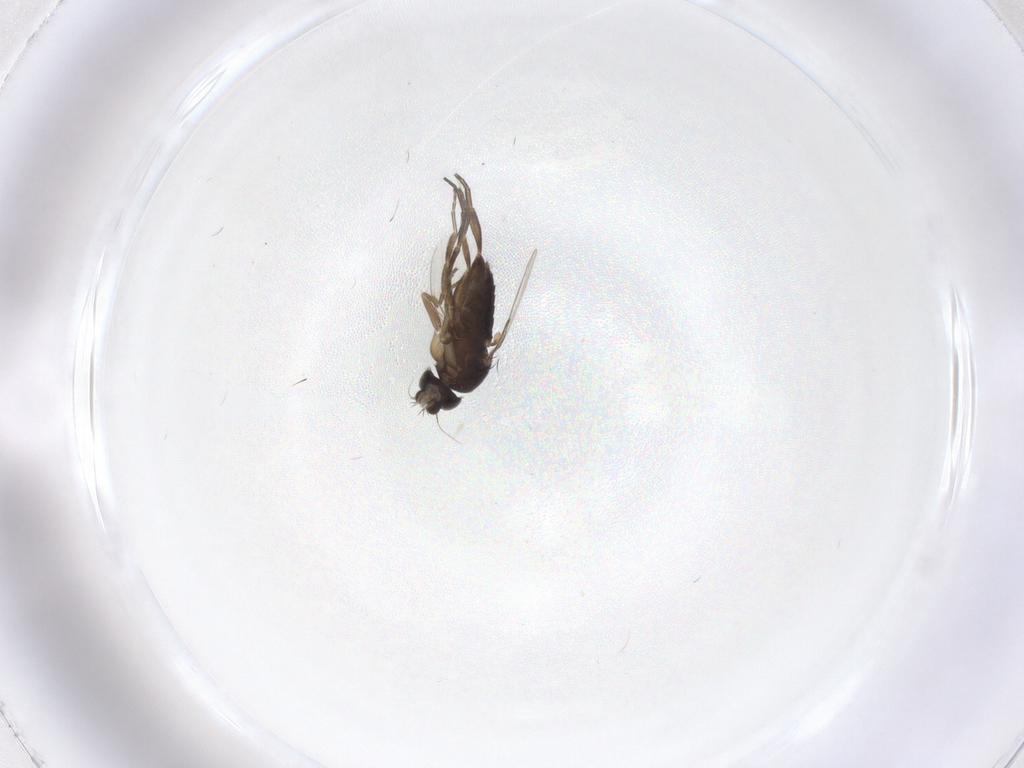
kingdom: Animalia
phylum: Arthropoda
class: Insecta
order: Diptera
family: Phoridae
